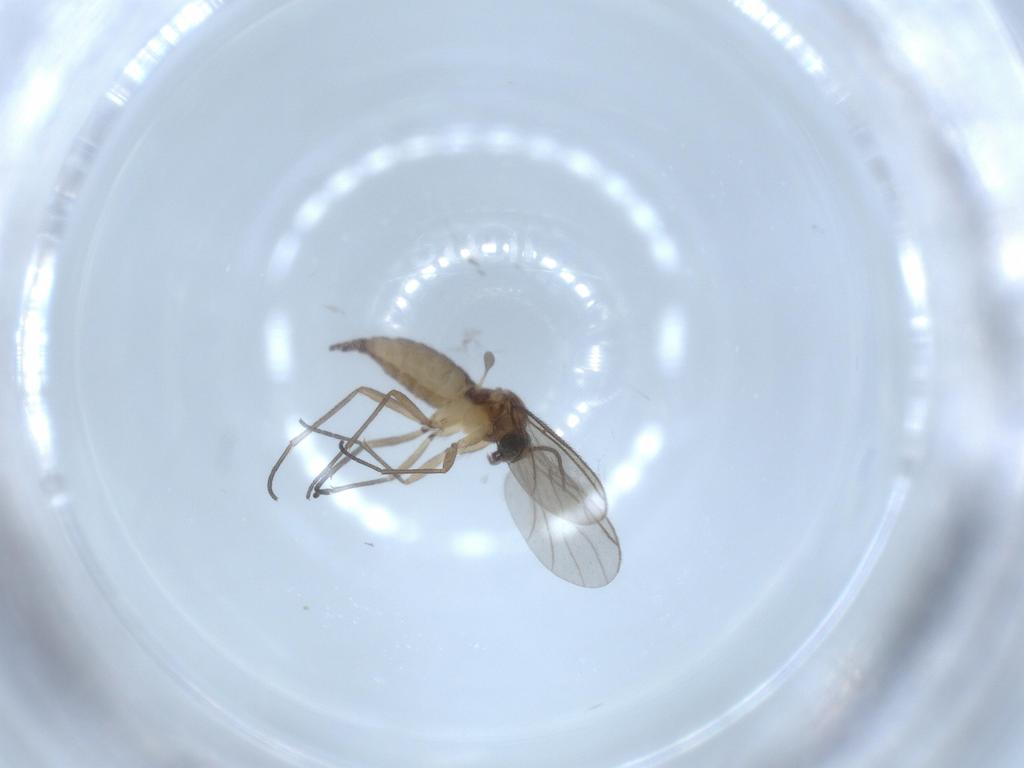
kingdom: Animalia
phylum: Arthropoda
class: Insecta
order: Diptera
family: Sciaridae
